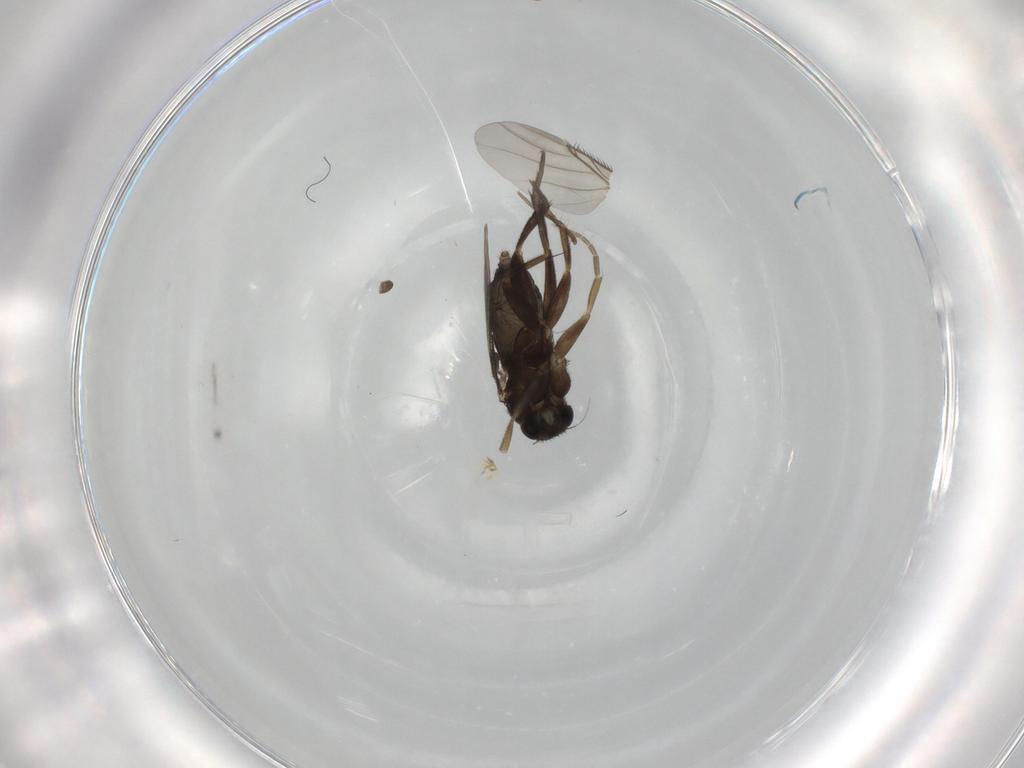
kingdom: Animalia
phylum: Arthropoda
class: Insecta
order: Diptera
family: Syrphidae
